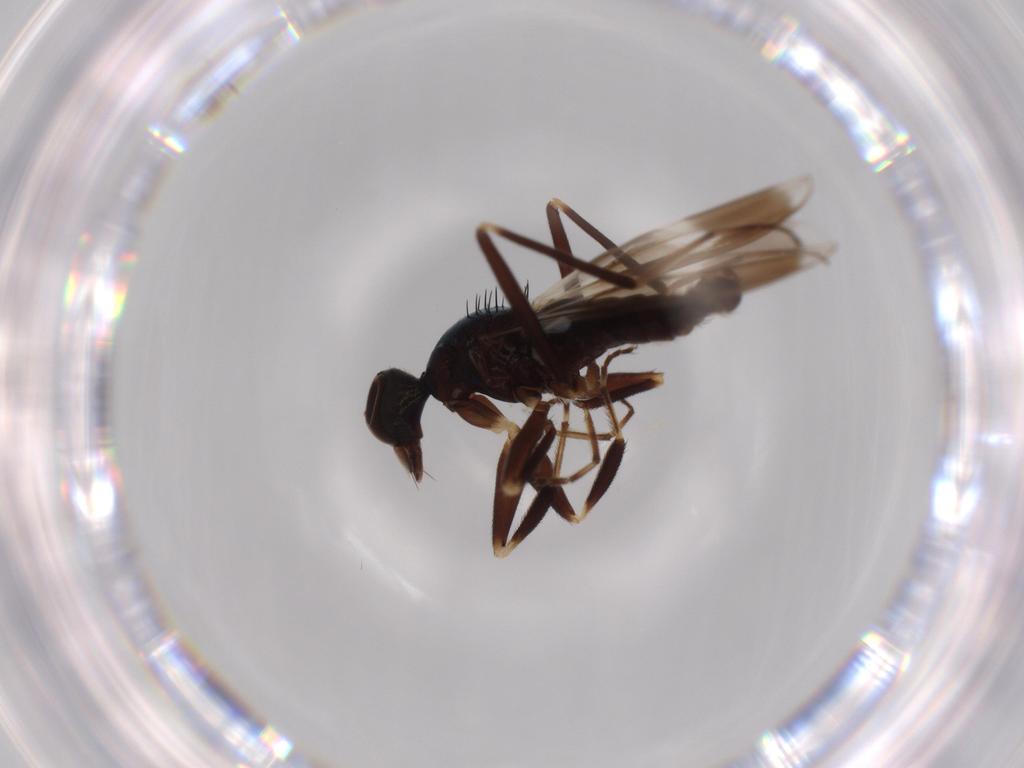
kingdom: Animalia
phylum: Arthropoda
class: Insecta
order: Diptera
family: Hybotidae
